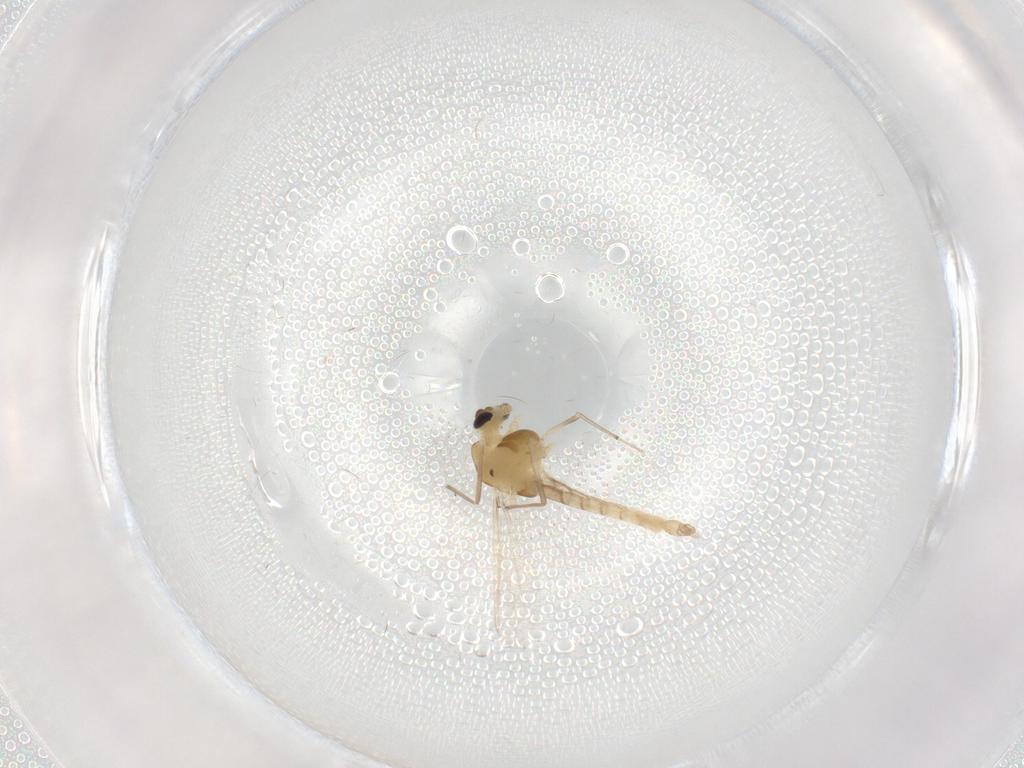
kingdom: Animalia
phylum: Arthropoda
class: Insecta
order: Diptera
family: Chironomidae
